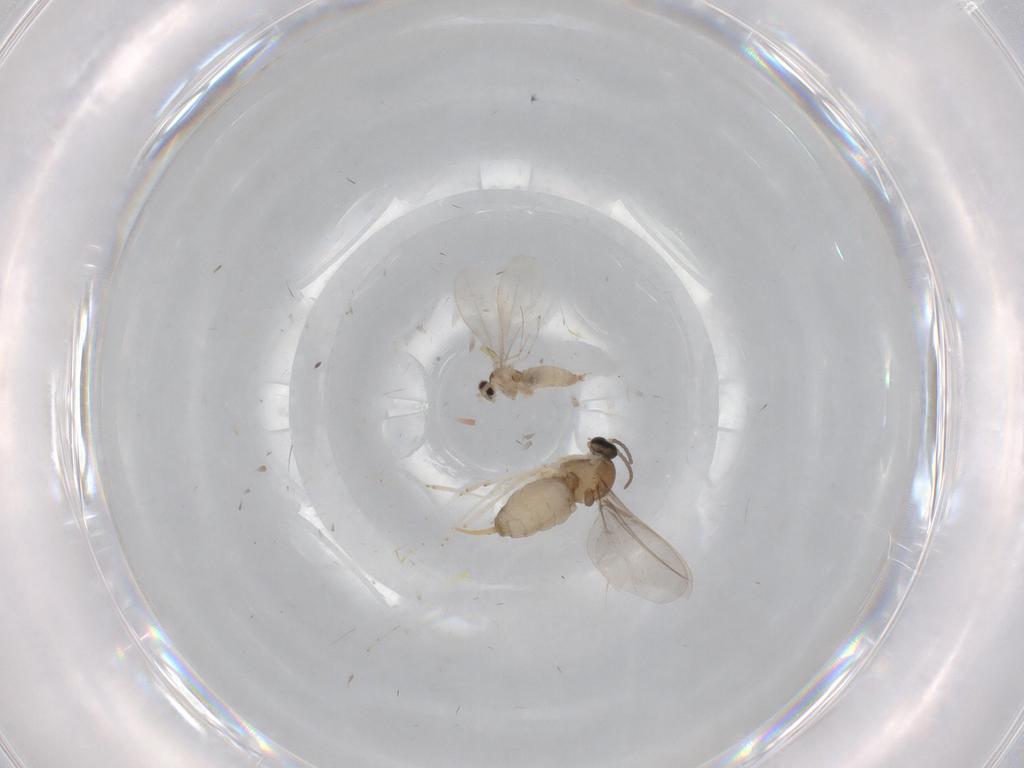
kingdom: Animalia
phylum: Arthropoda
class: Insecta
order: Diptera
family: Cecidomyiidae
